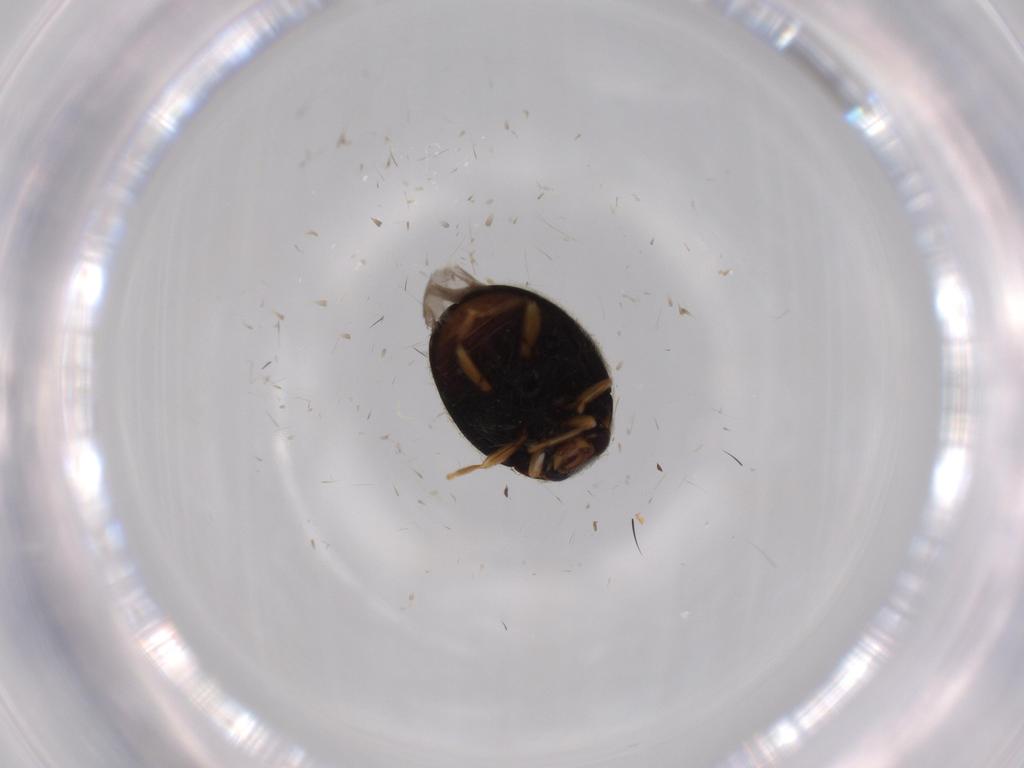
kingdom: Animalia
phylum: Arthropoda
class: Insecta
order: Coleoptera
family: Coccinellidae
